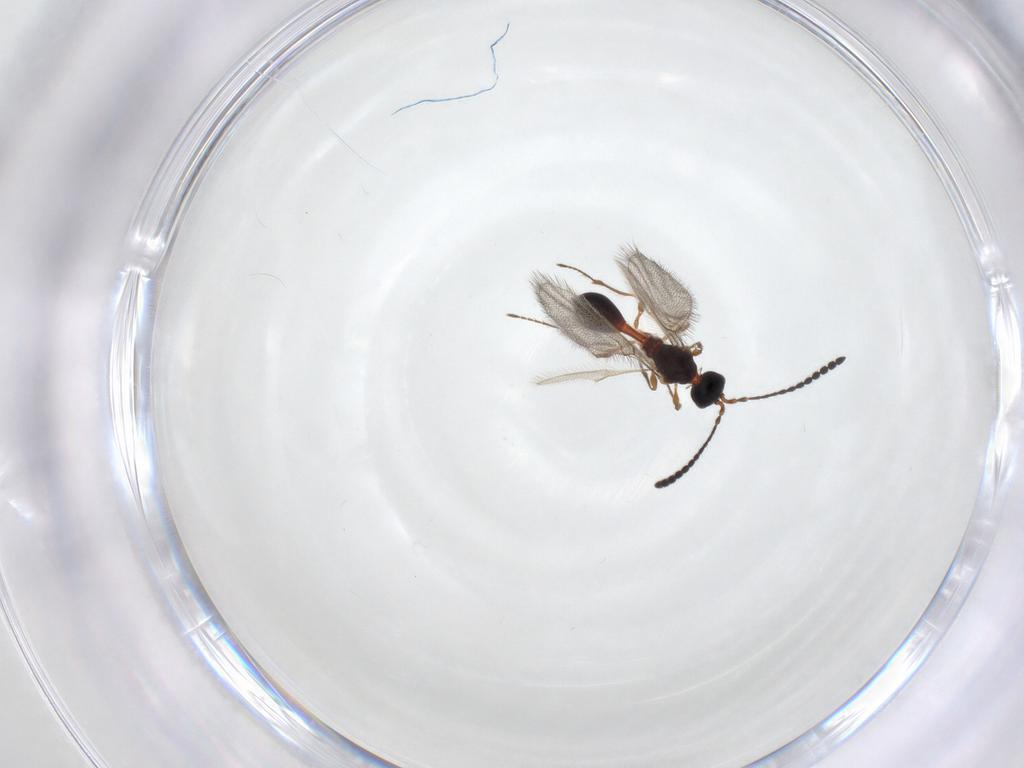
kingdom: Animalia
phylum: Arthropoda
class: Insecta
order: Hymenoptera
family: Diapriidae
